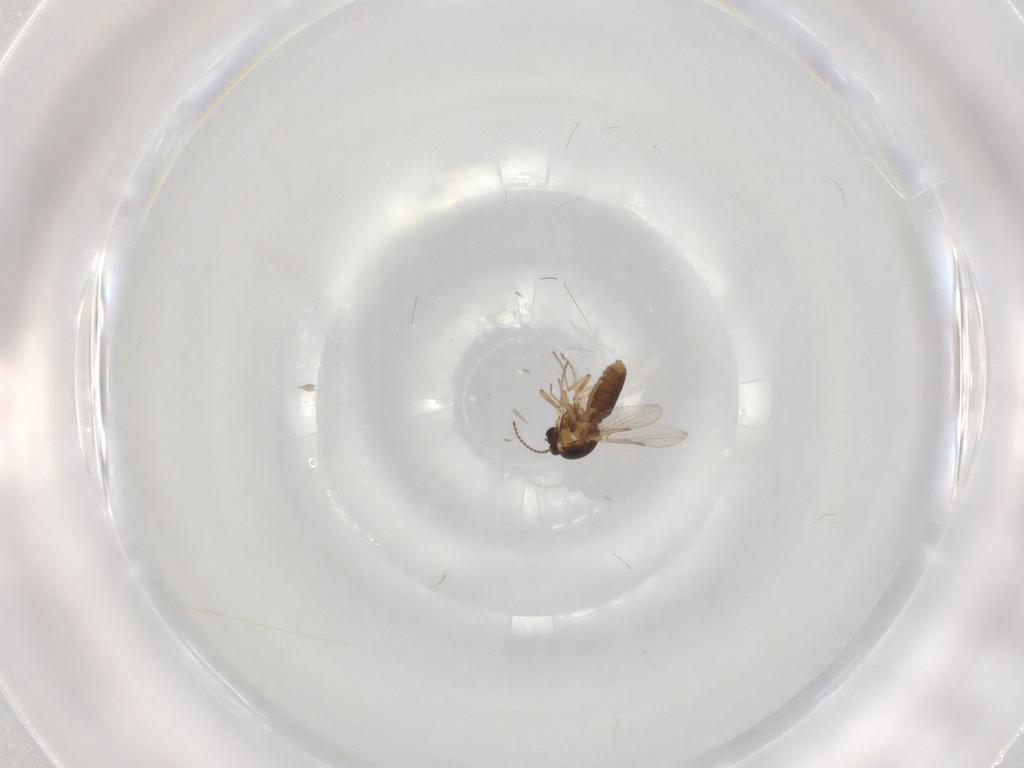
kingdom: Animalia
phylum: Arthropoda
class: Insecta
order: Diptera
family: Ceratopogonidae
